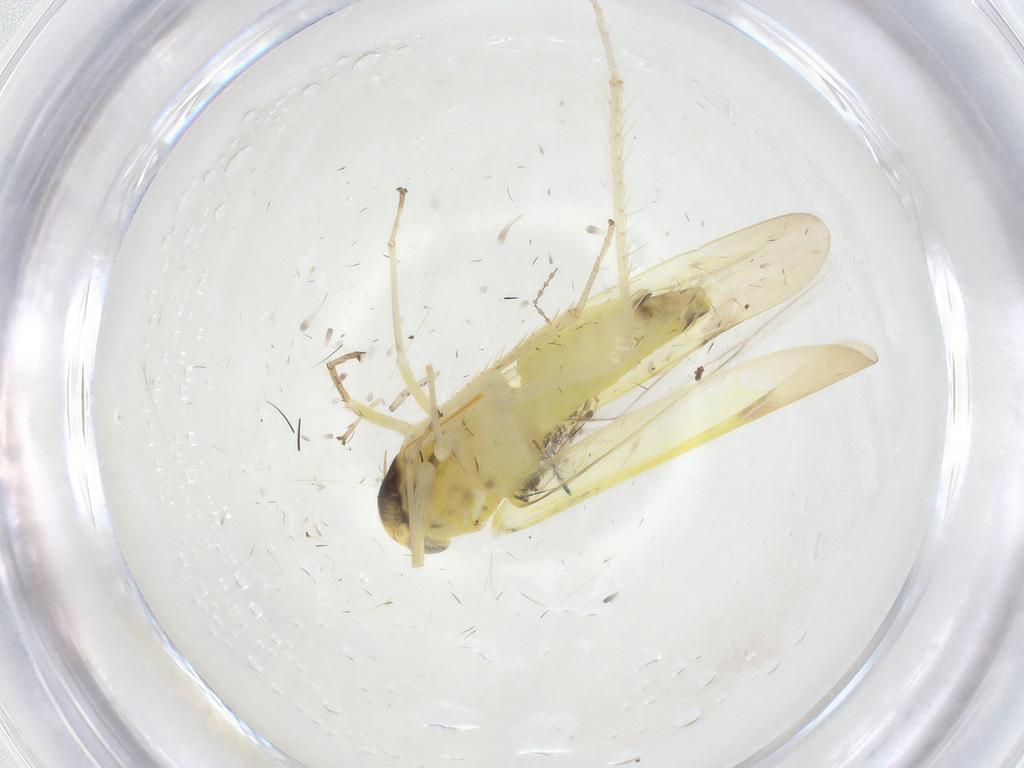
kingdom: Animalia
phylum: Arthropoda
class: Insecta
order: Hemiptera
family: Cicadellidae
